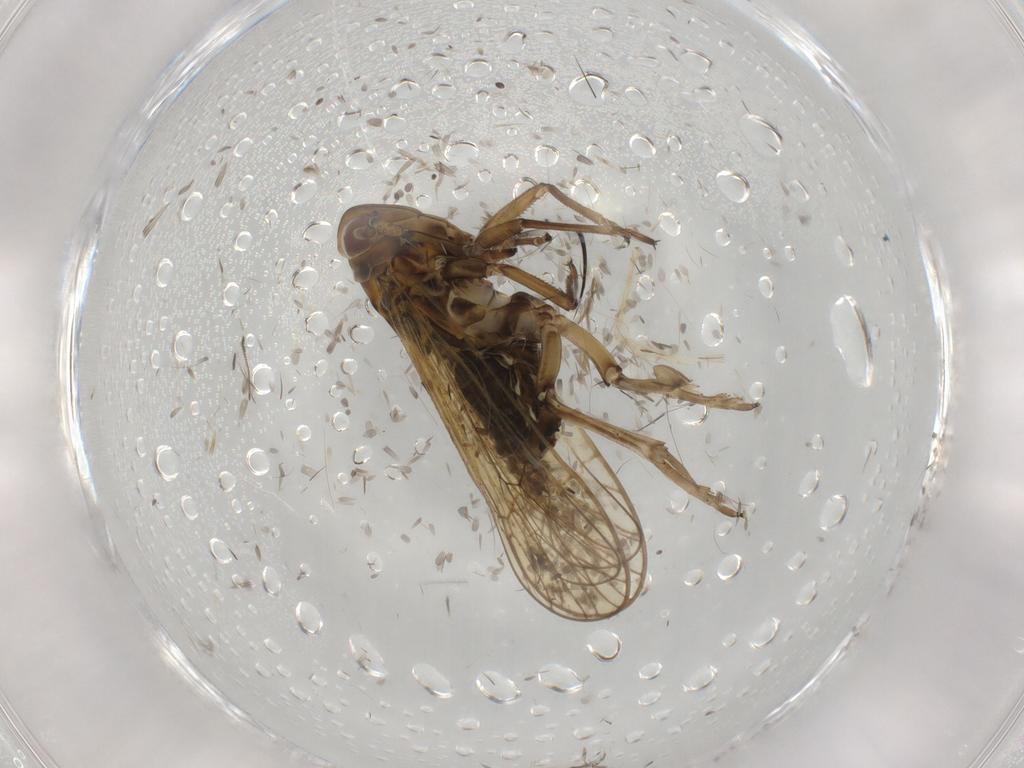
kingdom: Animalia
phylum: Arthropoda
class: Insecta
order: Hemiptera
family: Delphacidae
